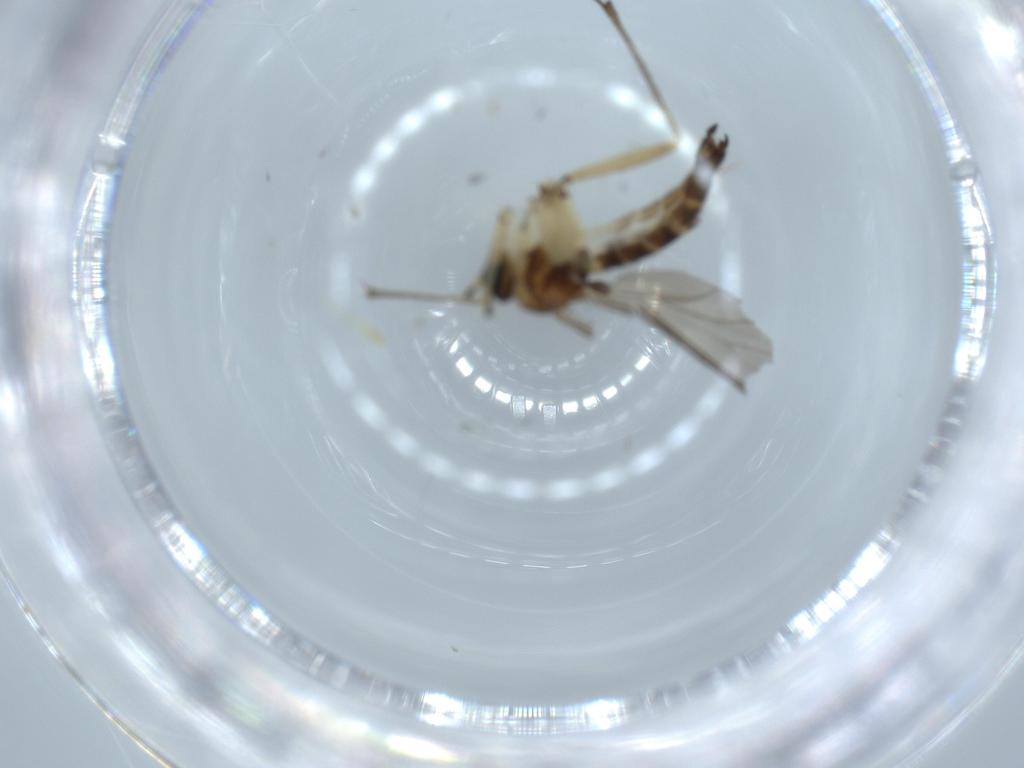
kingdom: Animalia
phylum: Arthropoda
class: Insecta
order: Diptera
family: Sciaridae
